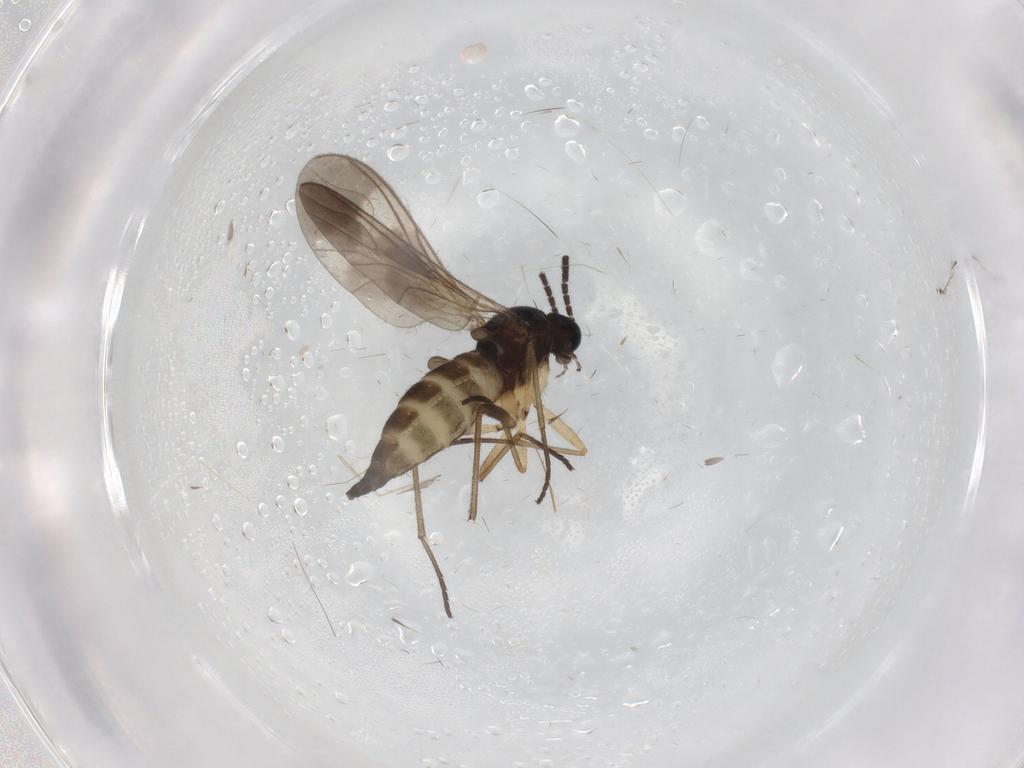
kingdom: Animalia
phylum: Arthropoda
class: Insecta
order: Diptera
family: Sciaridae
